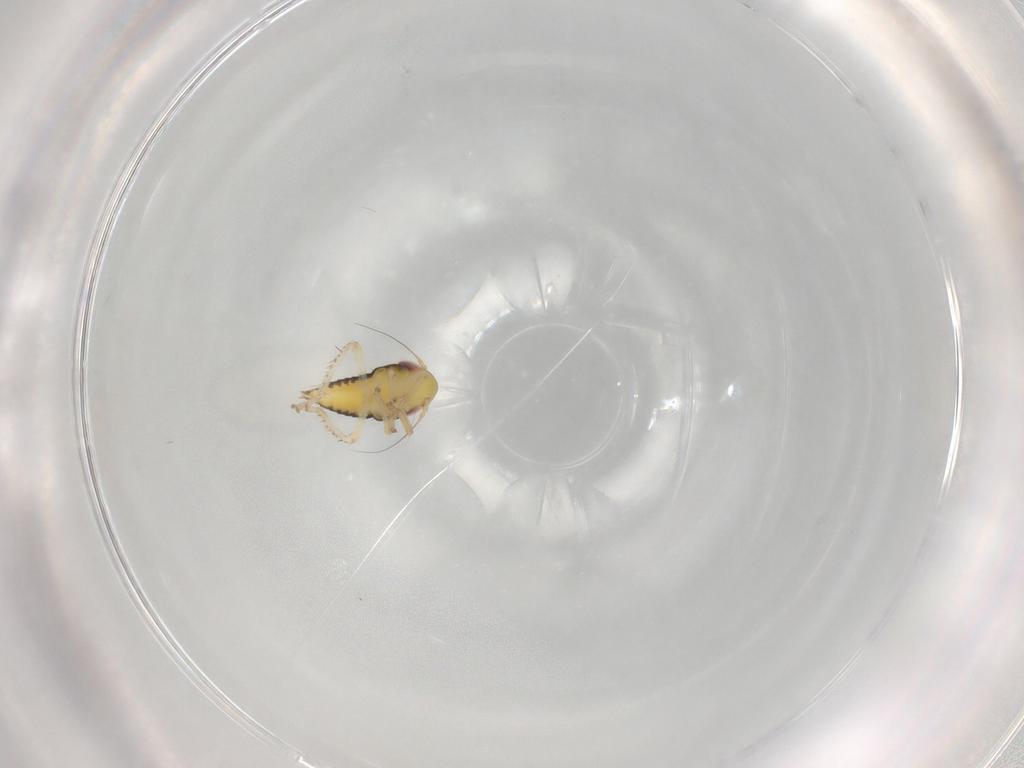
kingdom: Animalia
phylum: Arthropoda
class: Insecta
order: Hemiptera
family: Cicadellidae
